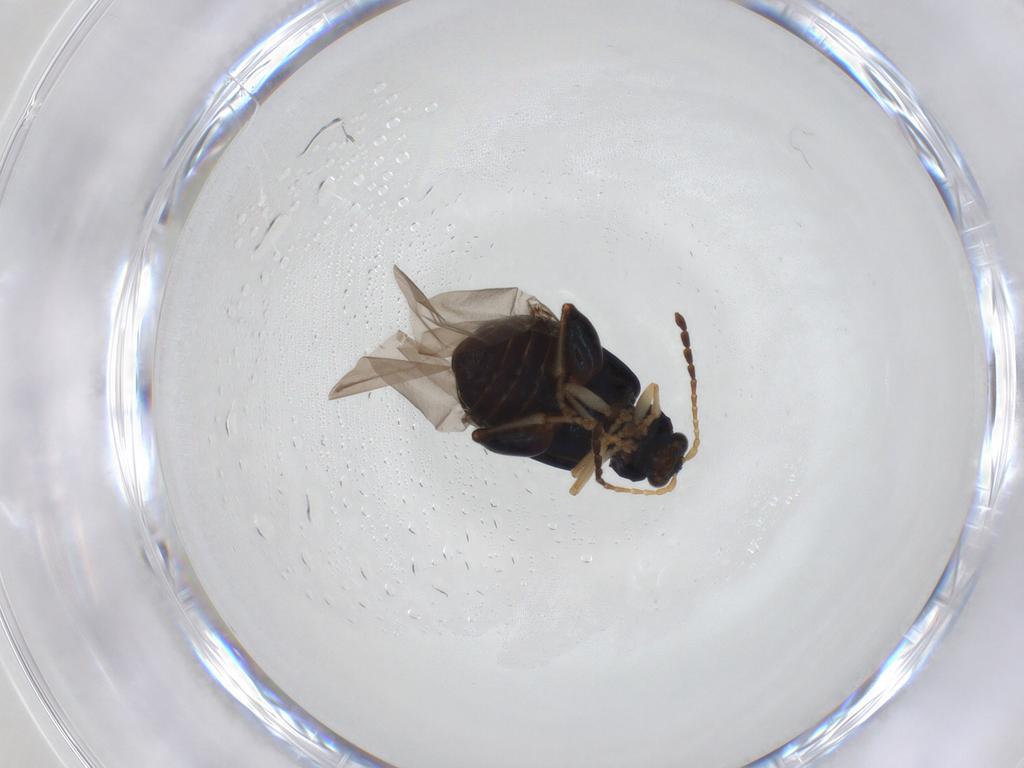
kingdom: Animalia
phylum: Arthropoda
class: Insecta
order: Coleoptera
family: Chrysomelidae
